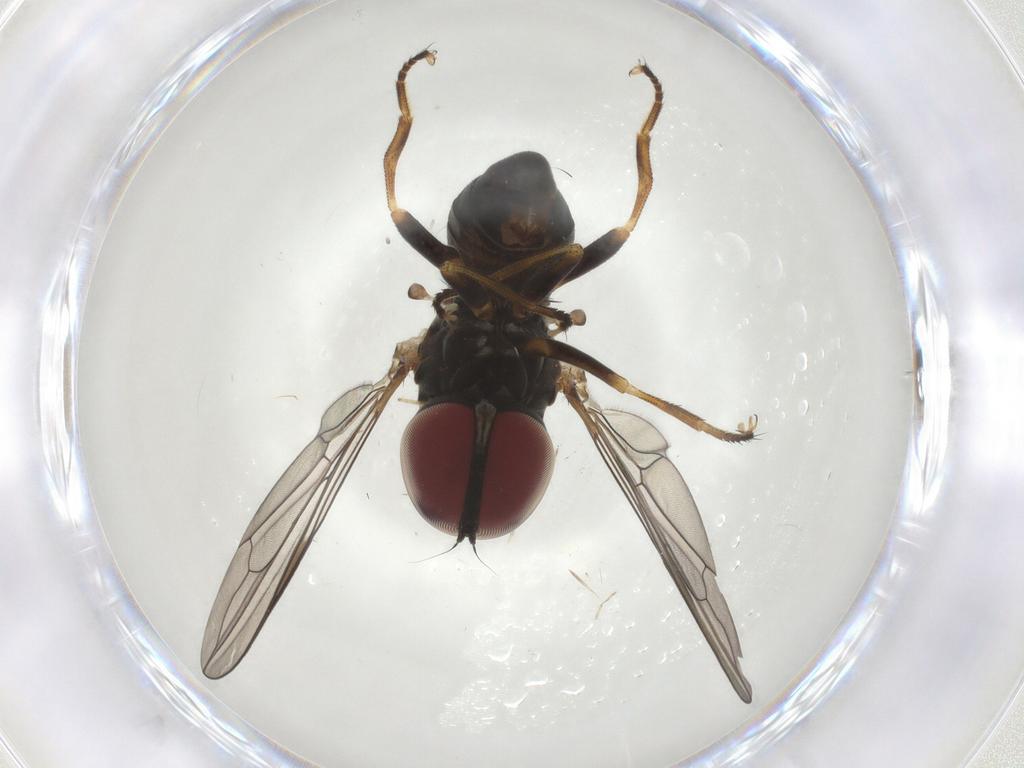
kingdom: Animalia
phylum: Arthropoda
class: Insecta
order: Diptera
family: Pipunculidae
